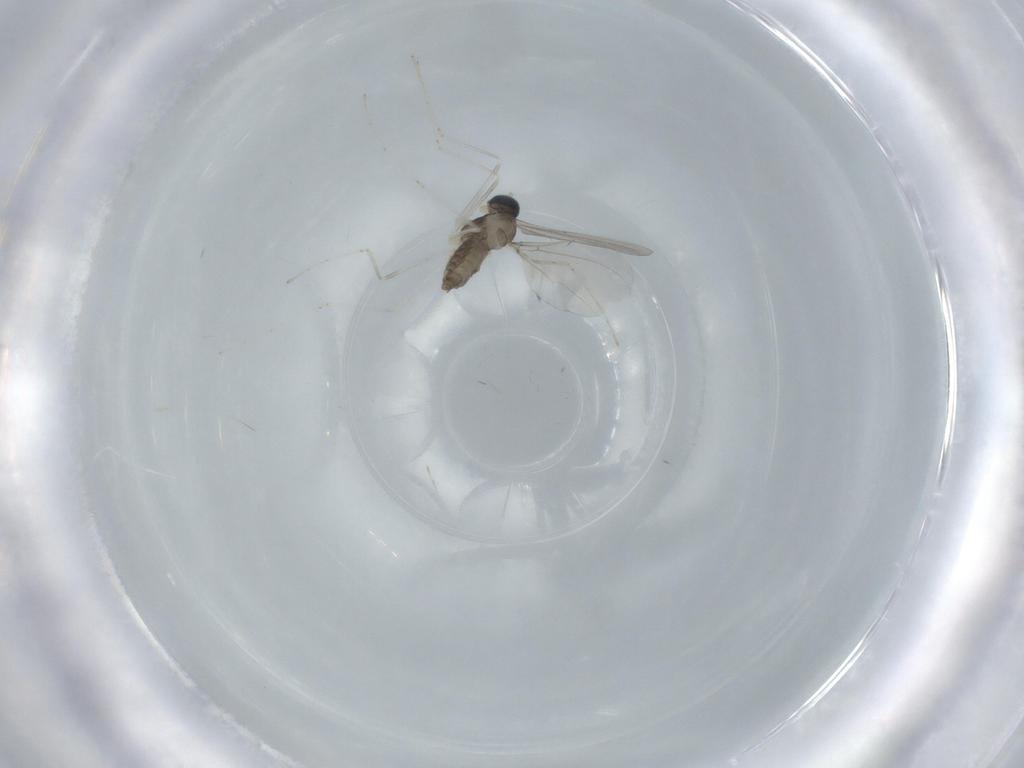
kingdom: Animalia
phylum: Arthropoda
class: Insecta
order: Diptera
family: Cecidomyiidae
